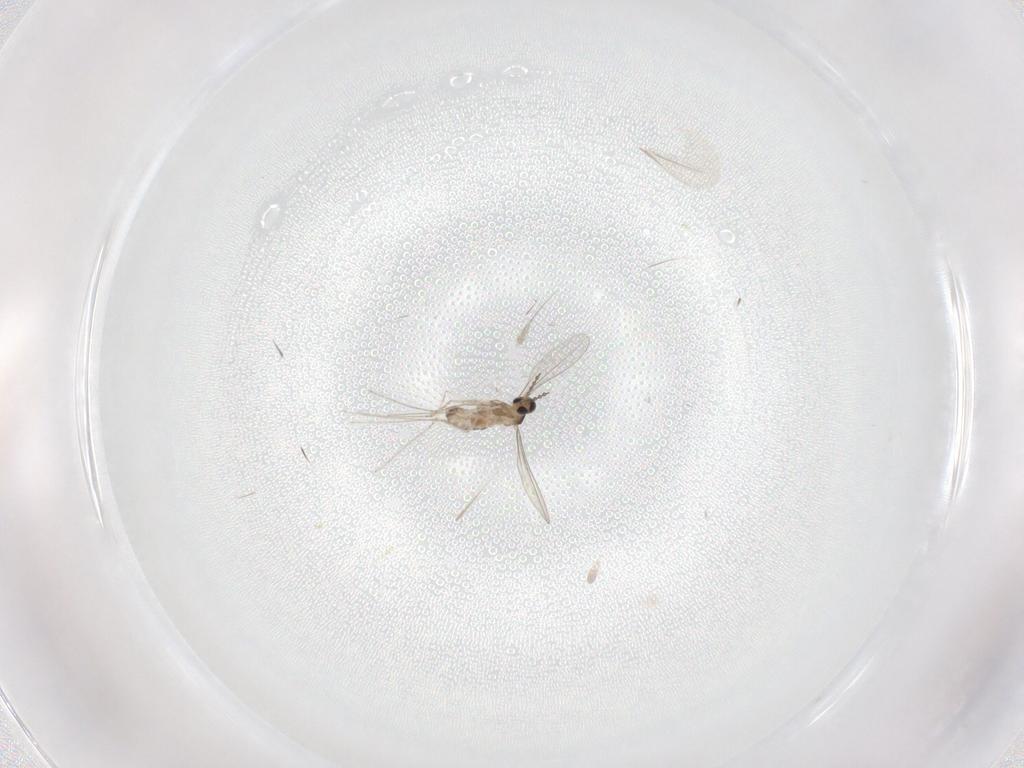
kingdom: Animalia
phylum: Arthropoda
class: Insecta
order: Diptera
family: Cecidomyiidae
